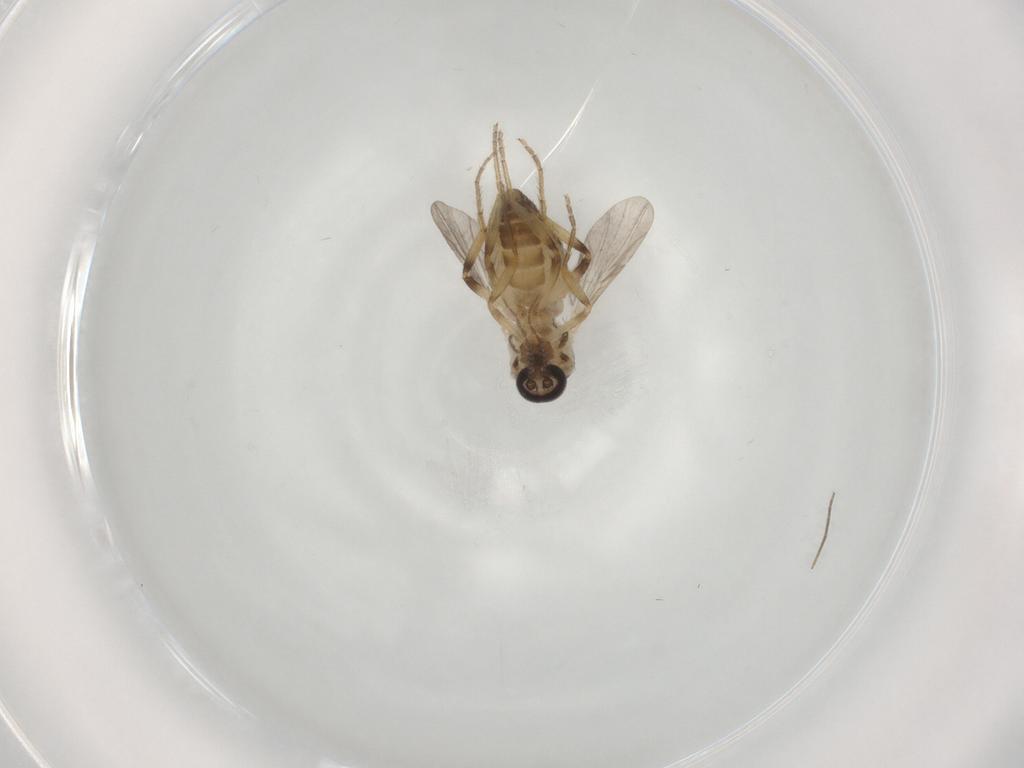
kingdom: Animalia
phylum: Arthropoda
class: Insecta
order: Diptera
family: Ceratopogonidae
